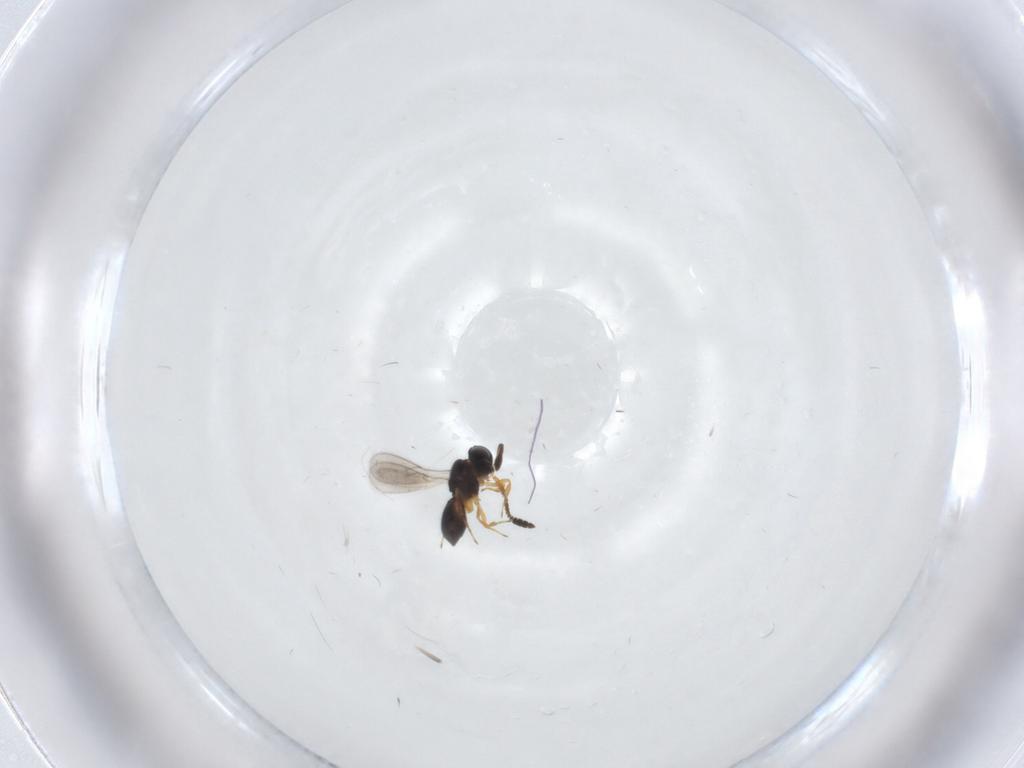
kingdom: Animalia
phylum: Arthropoda
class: Insecta
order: Hymenoptera
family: Scelionidae
